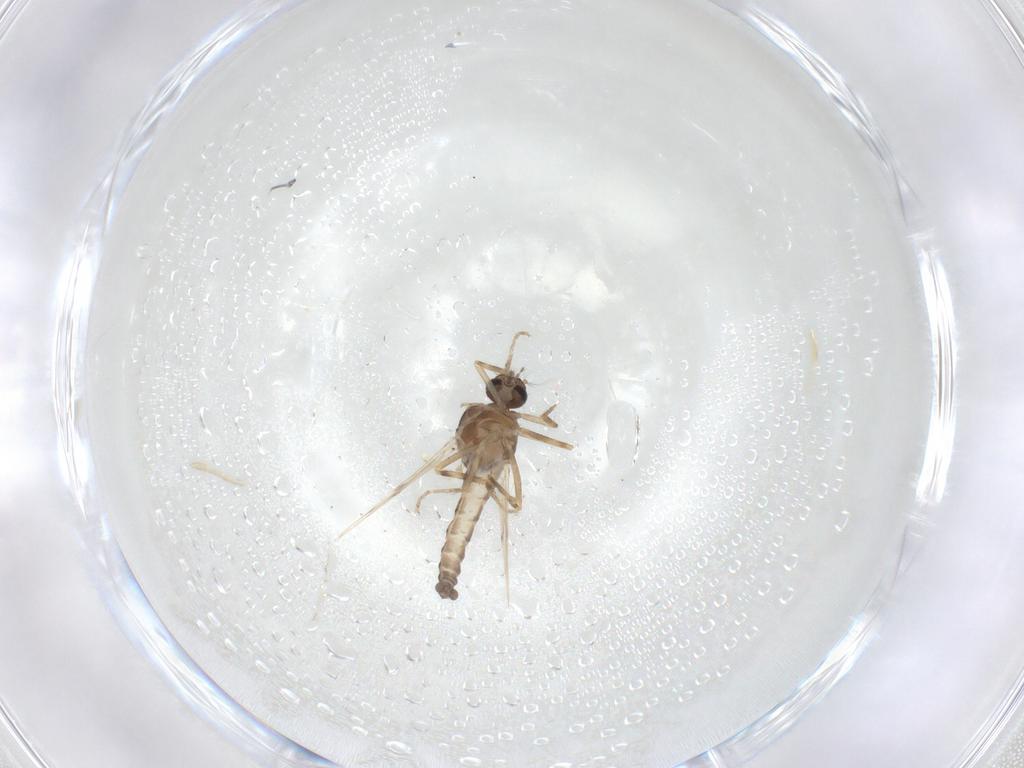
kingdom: Animalia
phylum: Arthropoda
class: Insecta
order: Diptera
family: Ceratopogonidae
